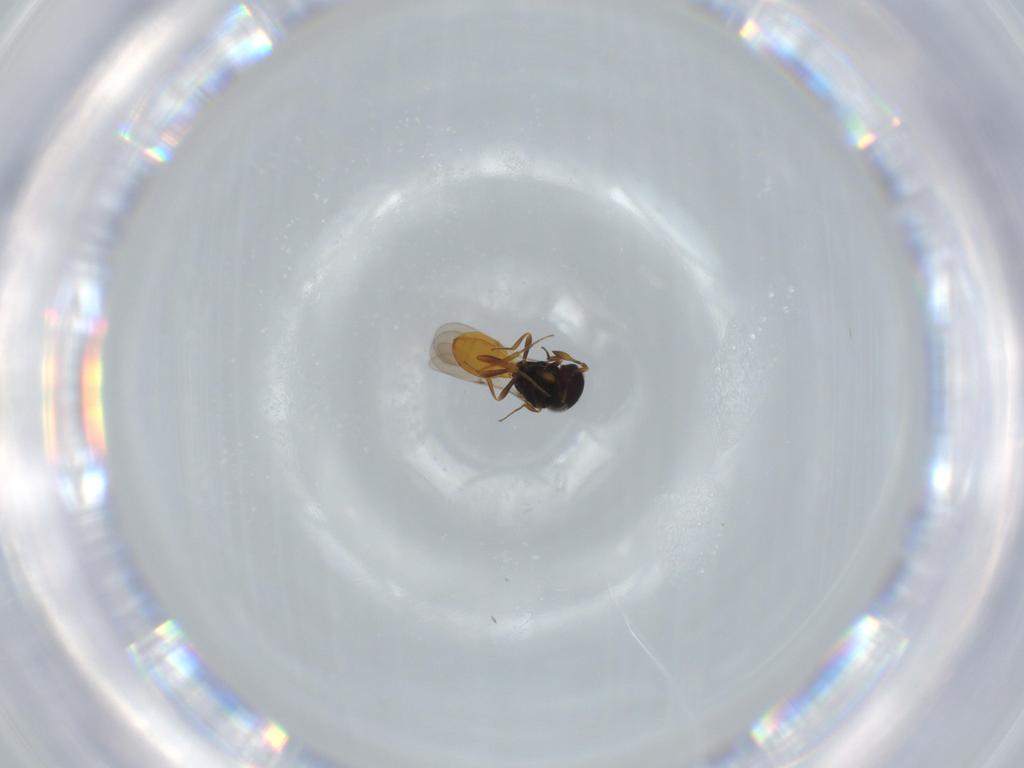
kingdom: Animalia
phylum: Arthropoda
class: Insecta
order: Hymenoptera
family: Scelionidae
